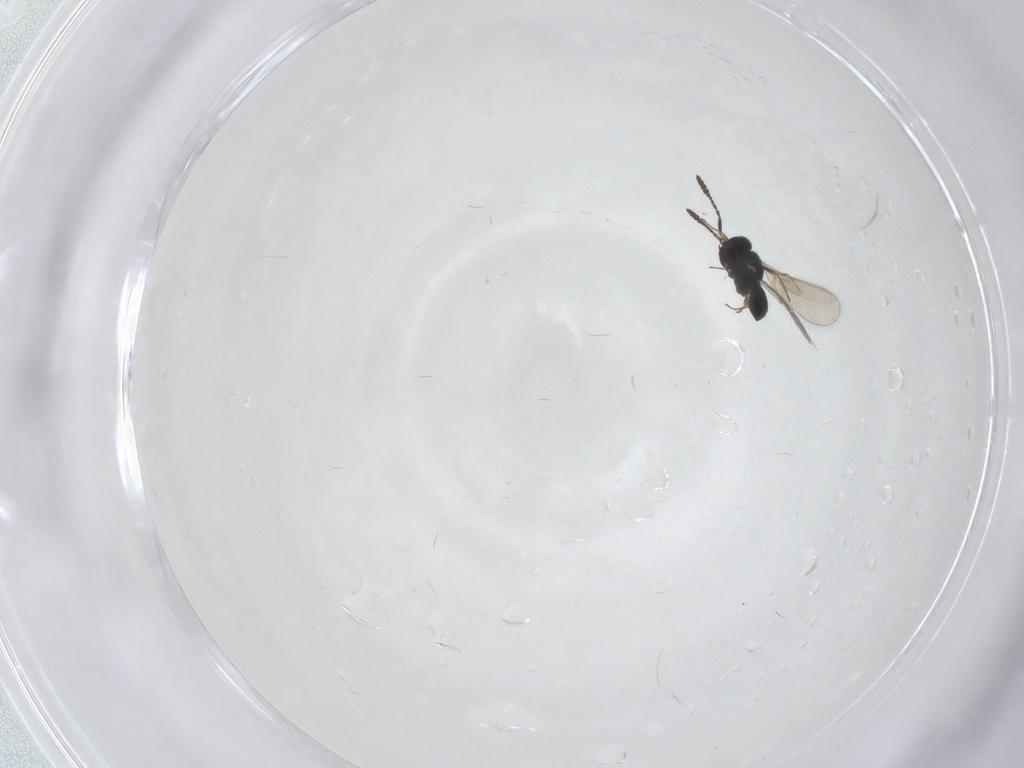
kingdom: Animalia
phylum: Arthropoda
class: Insecta
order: Hymenoptera
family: Scelionidae
